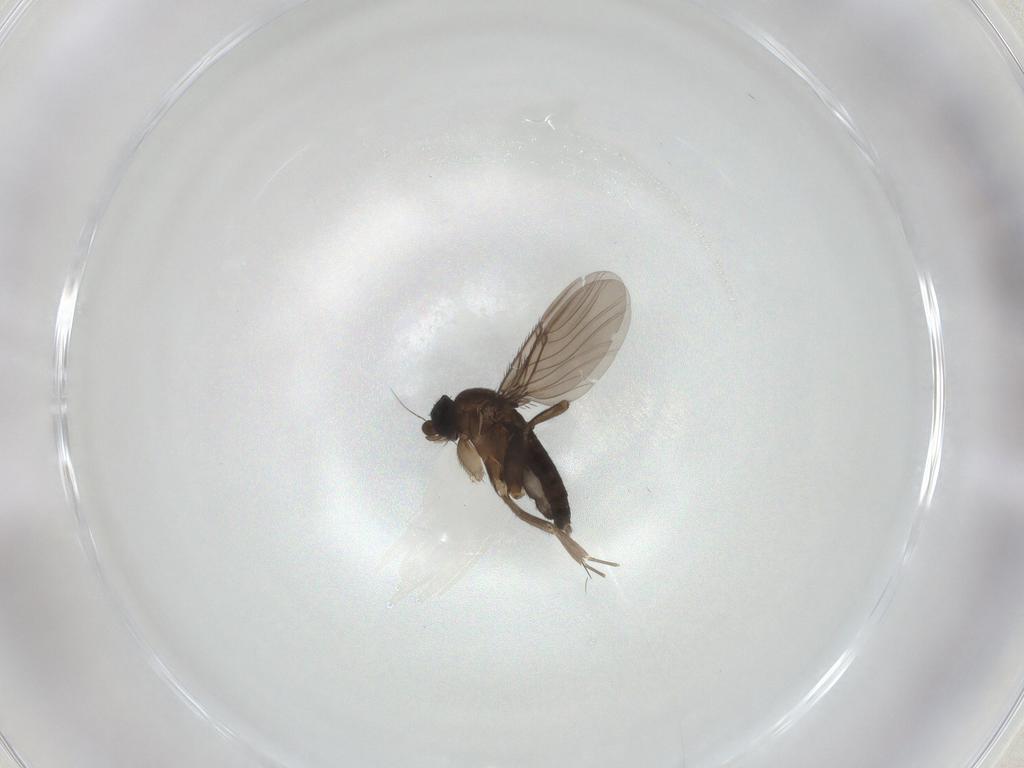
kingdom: Animalia
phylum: Arthropoda
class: Insecta
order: Diptera
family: Phoridae
